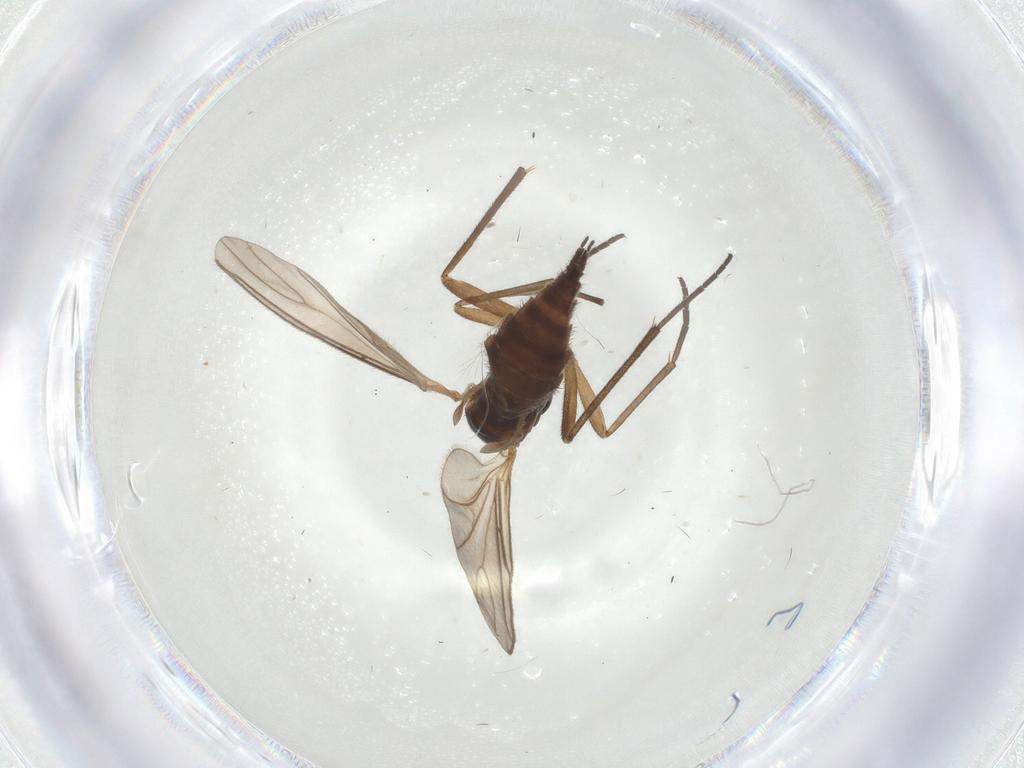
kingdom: Animalia
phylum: Arthropoda
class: Insecta
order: Diptera
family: Sciaridae
